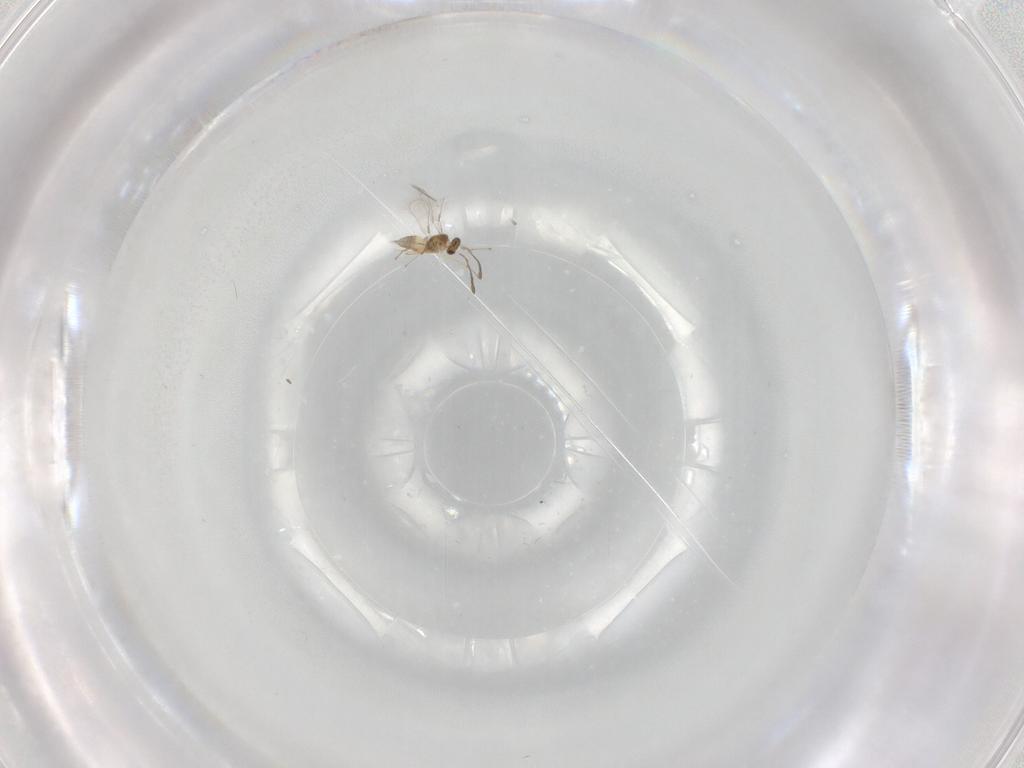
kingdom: Animalia
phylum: Arthropoda
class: Insecta
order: Hymenoptera
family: Mymaridae
